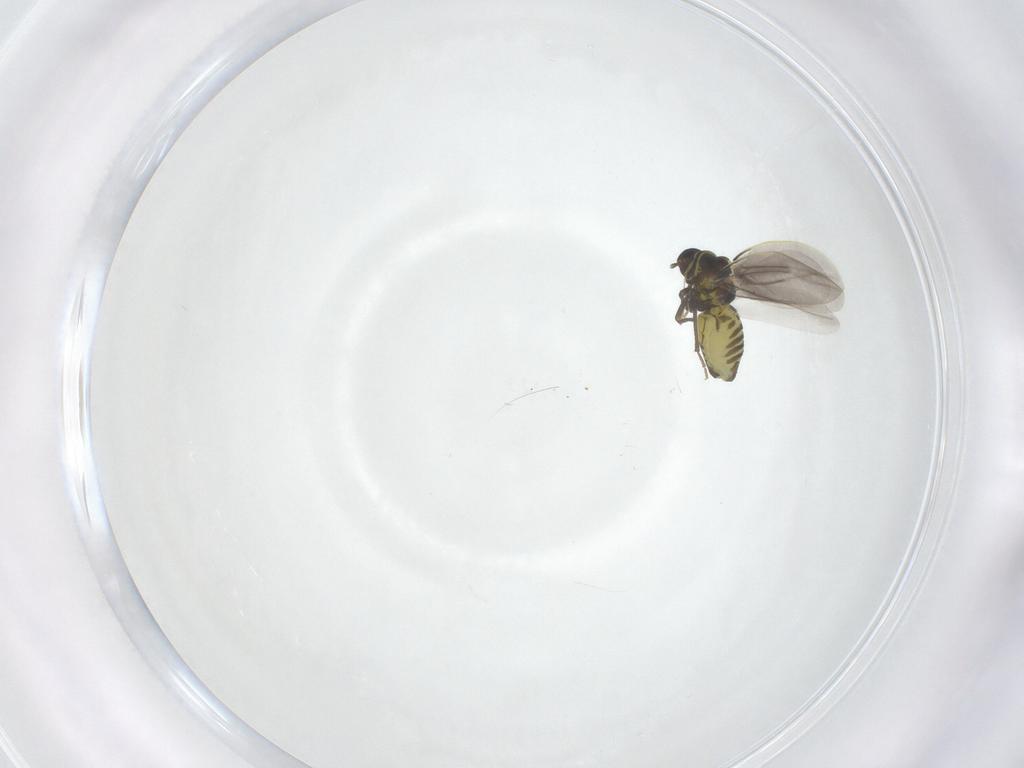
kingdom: Animalia
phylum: Arthropoda
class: Insecta
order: Hemiptera
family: Aleyrodidae
